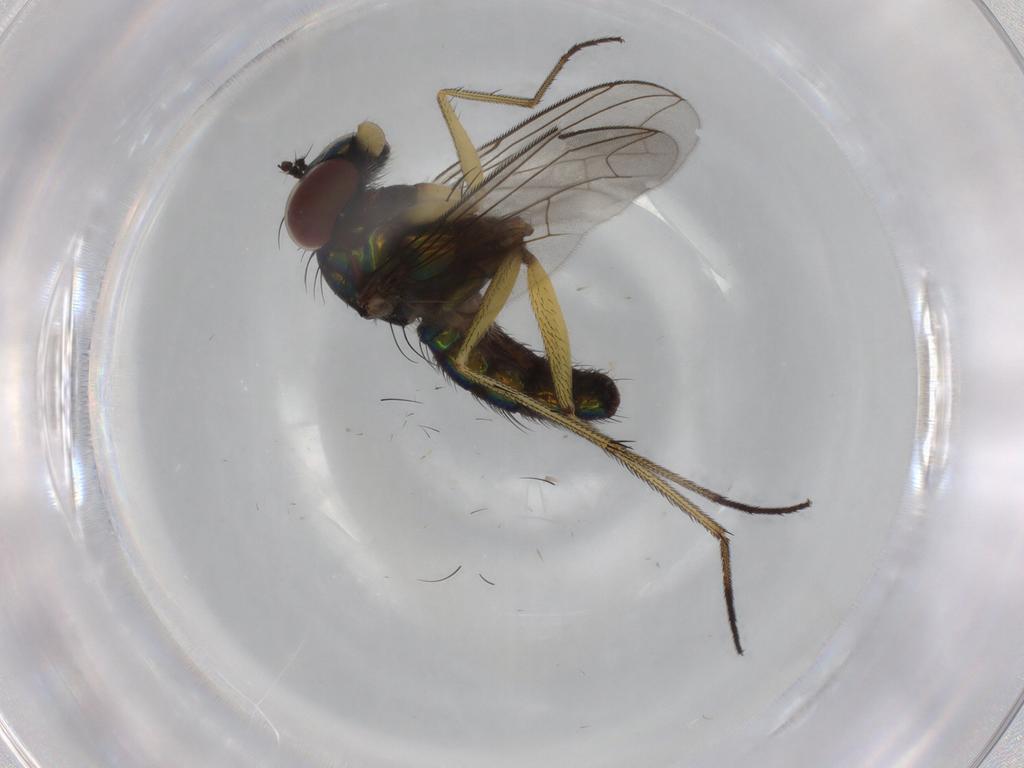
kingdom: Animalia
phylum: Arthropoda
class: Insecta
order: Diptera
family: Dolichopodidae
